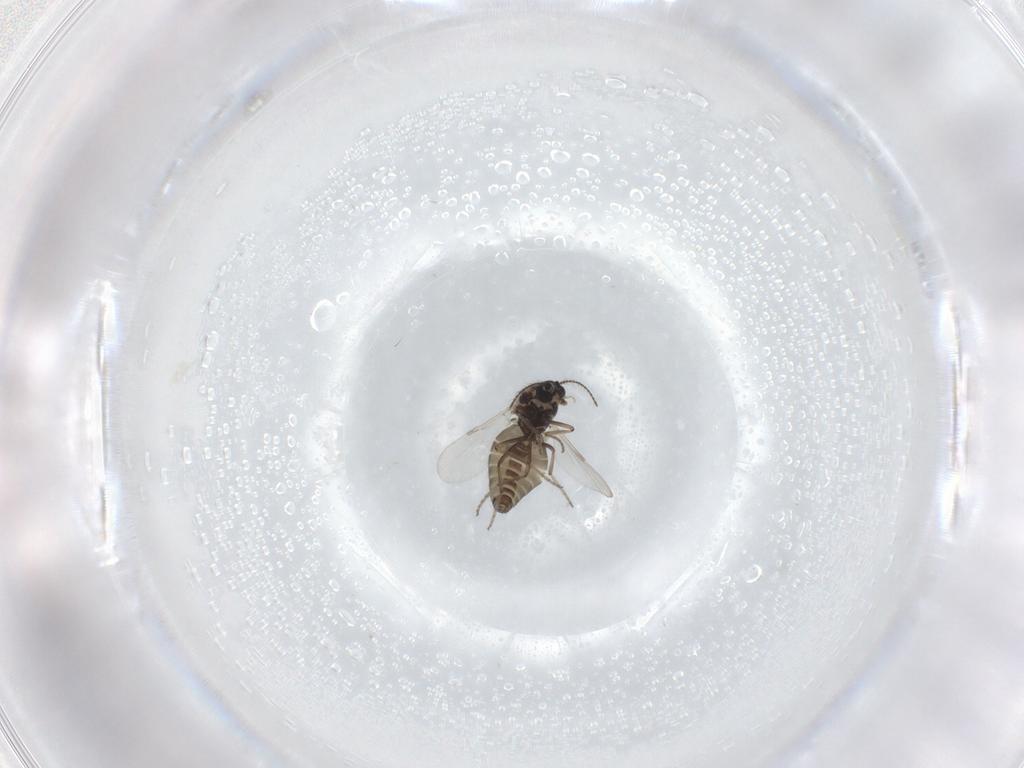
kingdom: Animalia
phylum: Arthropoda
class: Insecta
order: Diptera
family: Ceratopogonidae
